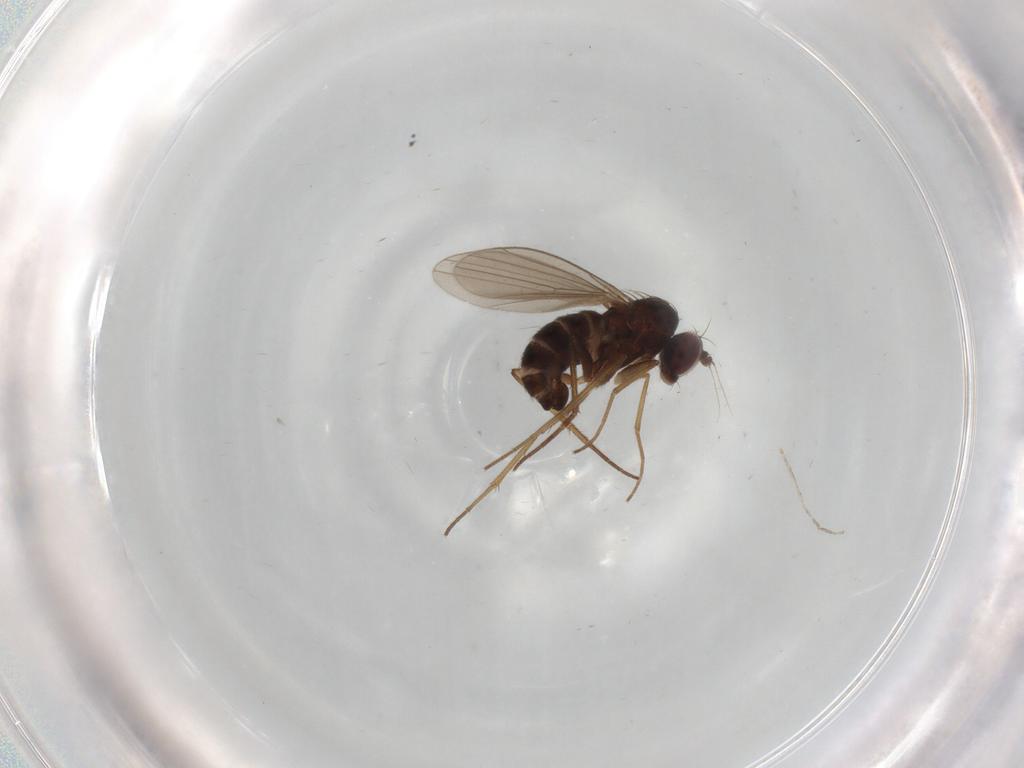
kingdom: Animalia
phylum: Arthropoda
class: Insecta
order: Diptera
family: Dolichopodidae
